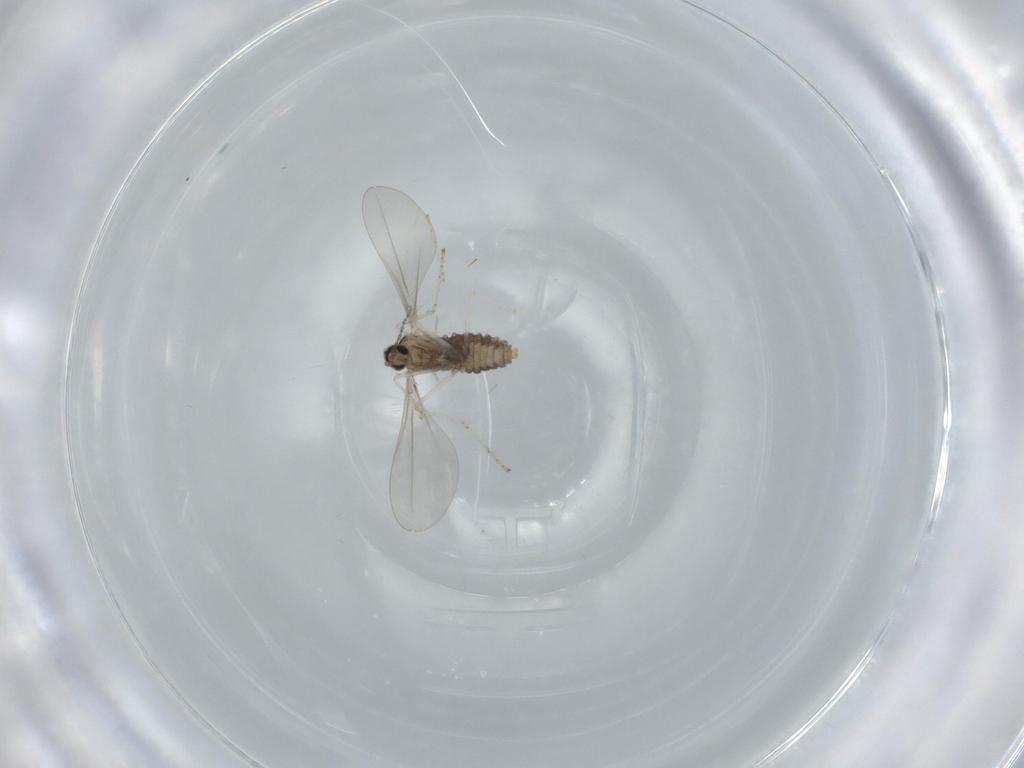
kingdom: Animalia
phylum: Arthropoda
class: Insecta
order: Diptera
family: Cecidomyiidae
